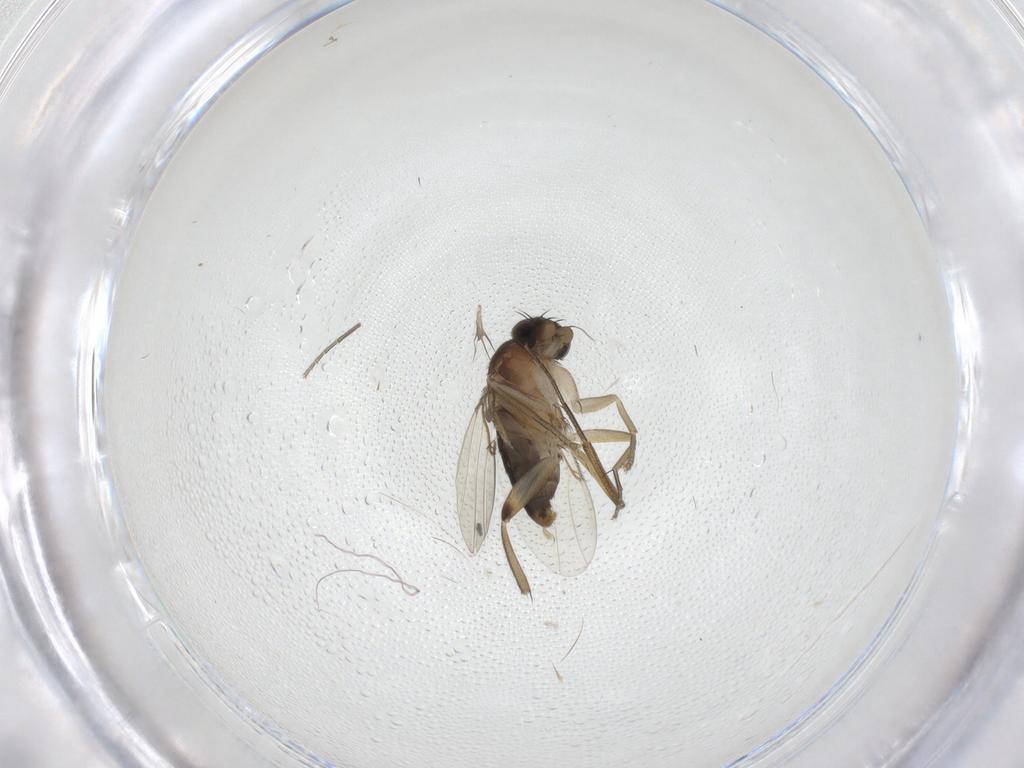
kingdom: Animalia
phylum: Arthropoda
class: Insecta
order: Diptera
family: Phoridae
